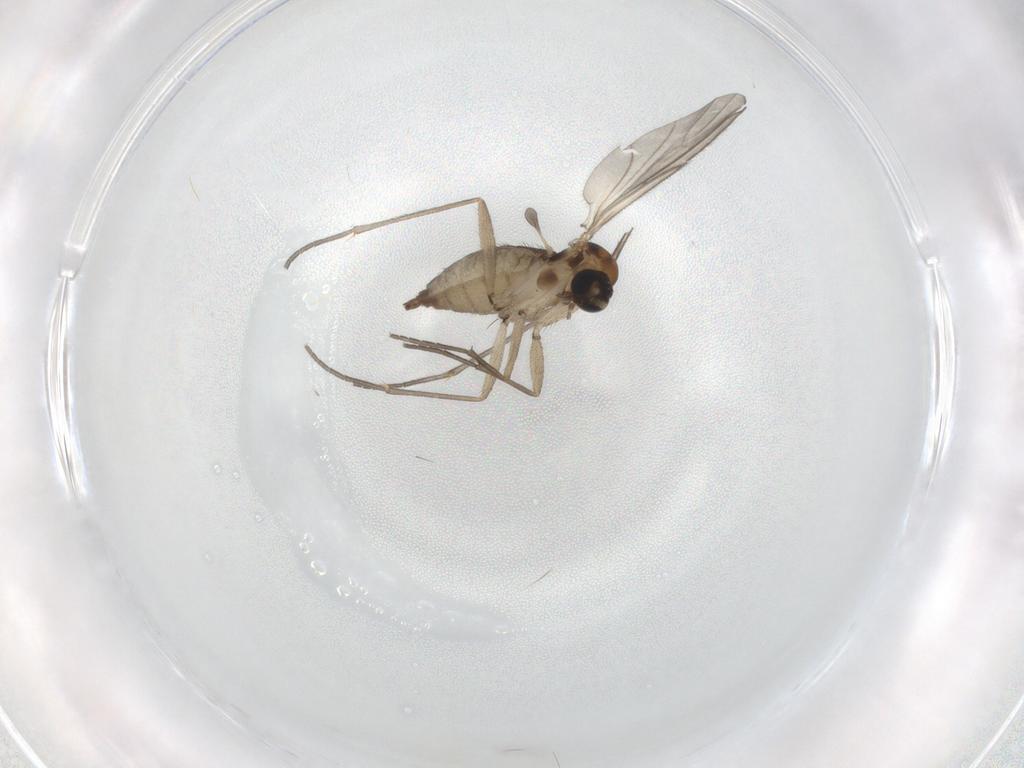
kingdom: Animalia
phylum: Arthropoda
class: Insecta
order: Diptera
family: Sciaridae
